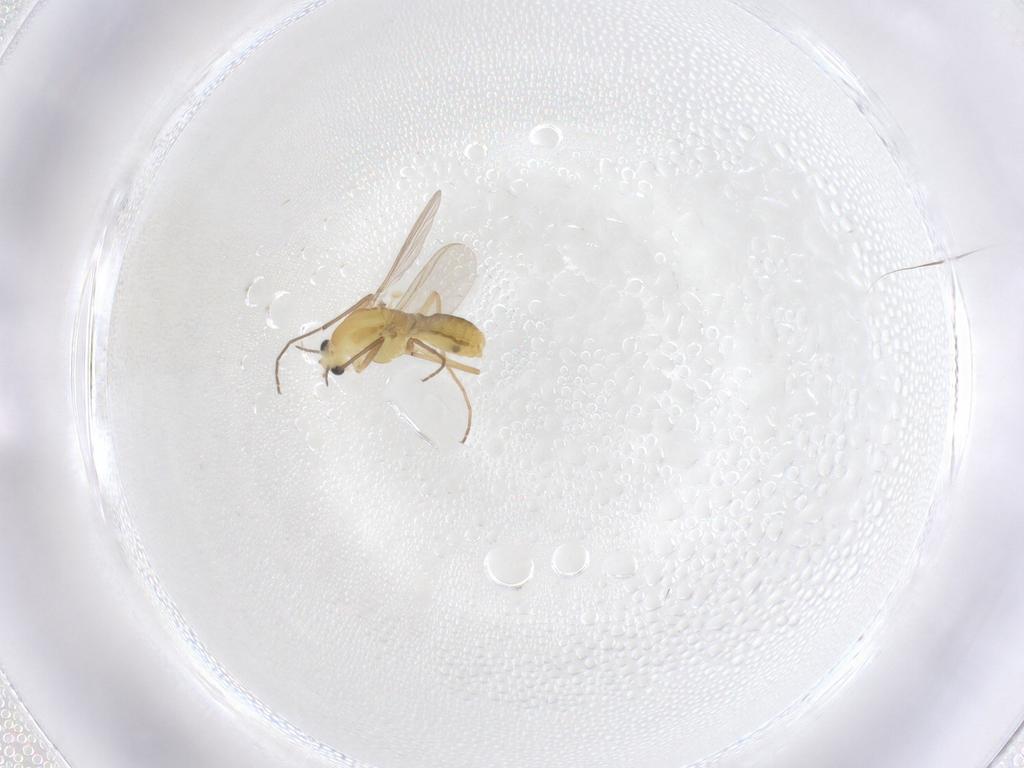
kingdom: Animalia
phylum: Arthropoda
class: Insecta
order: Diptera
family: Chironomidae
